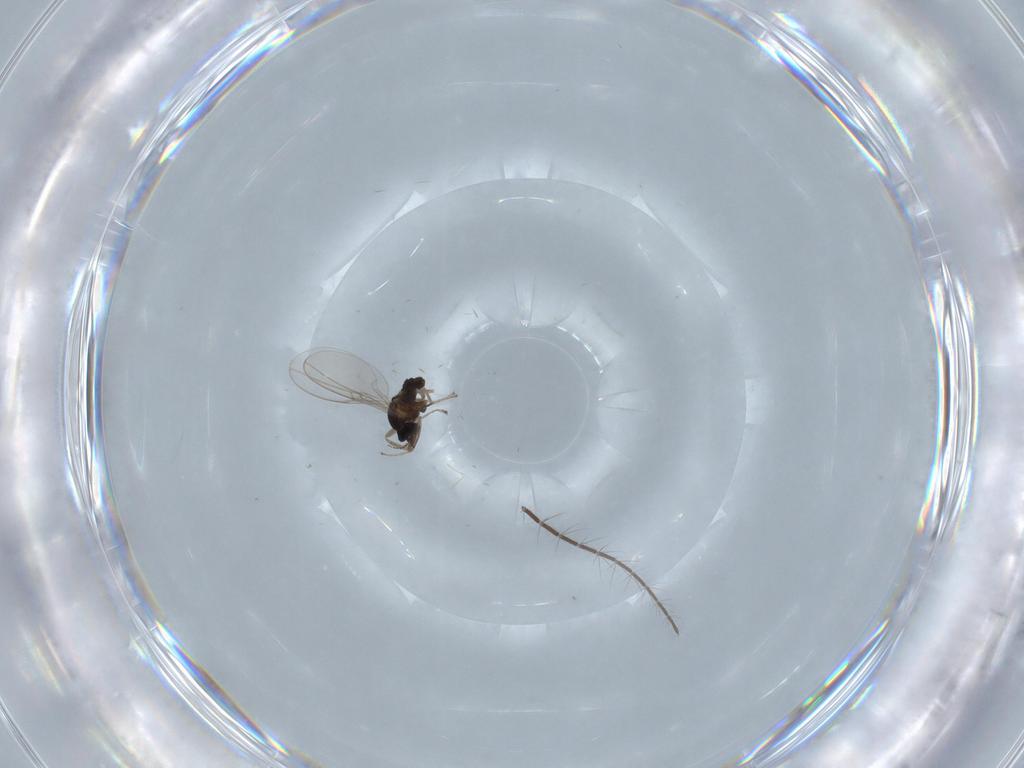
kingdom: Animalia
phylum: Arthropoda
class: Insecta
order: Diptera
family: Cecidomyiidae
